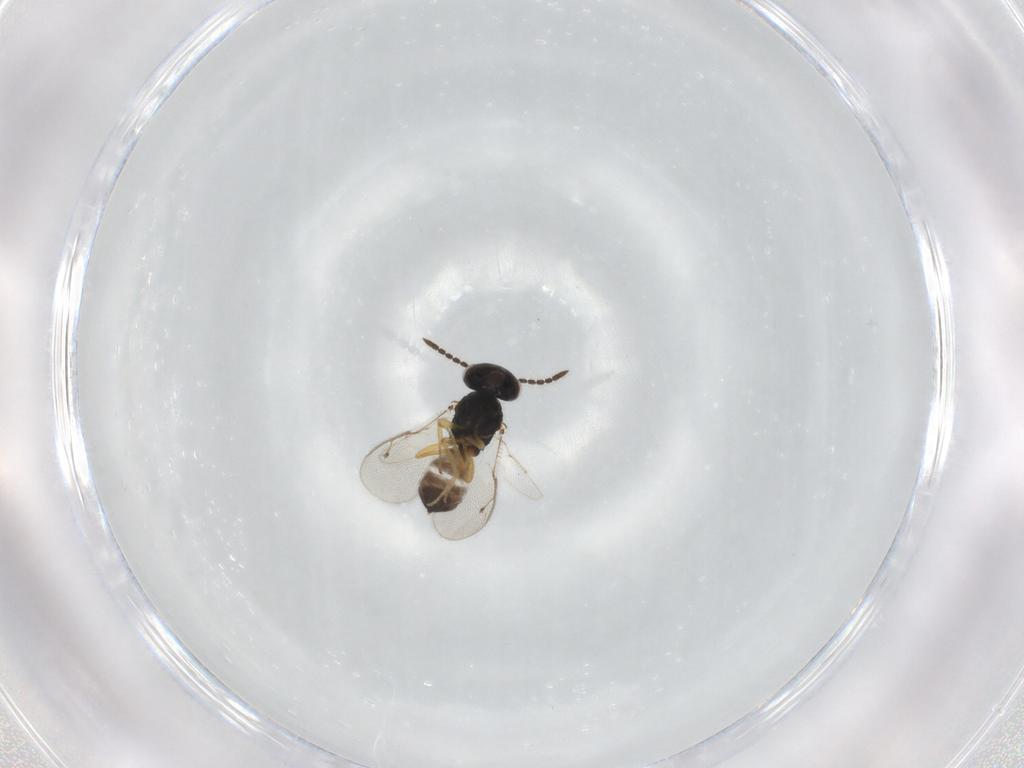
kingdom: Animalia
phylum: Arthropoda
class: Insecta
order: Hymenoptera
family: Pteromalidae
